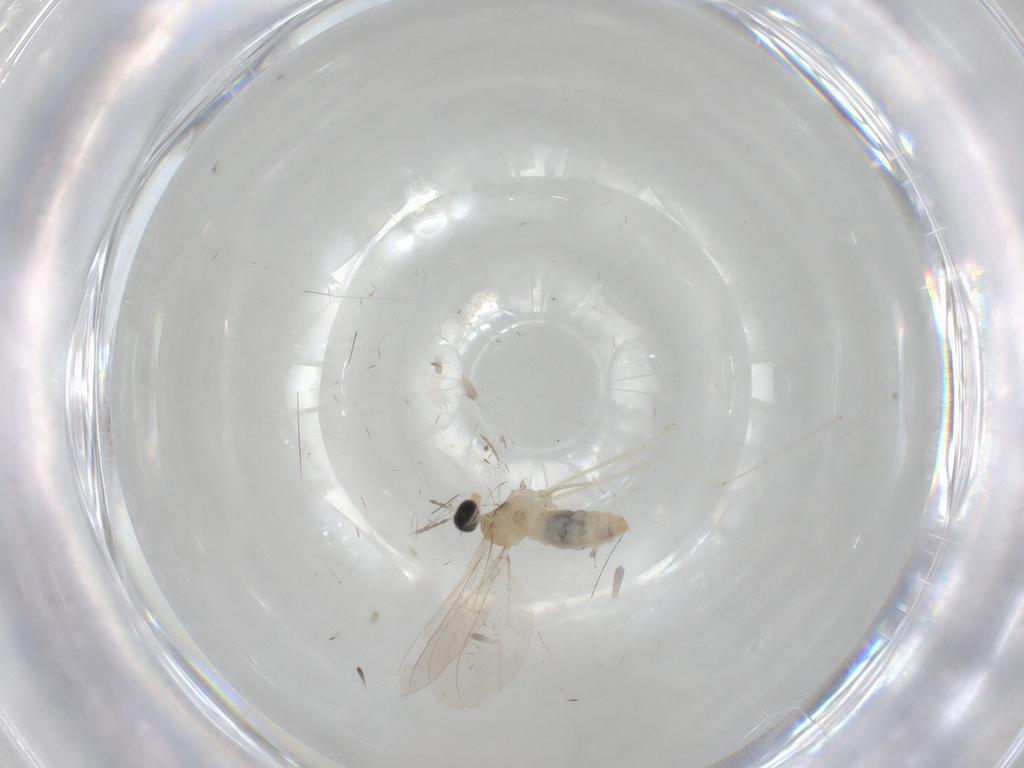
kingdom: Animalia
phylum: Arthropoda
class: Insecta
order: Diptera
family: Cecidomyiidae
